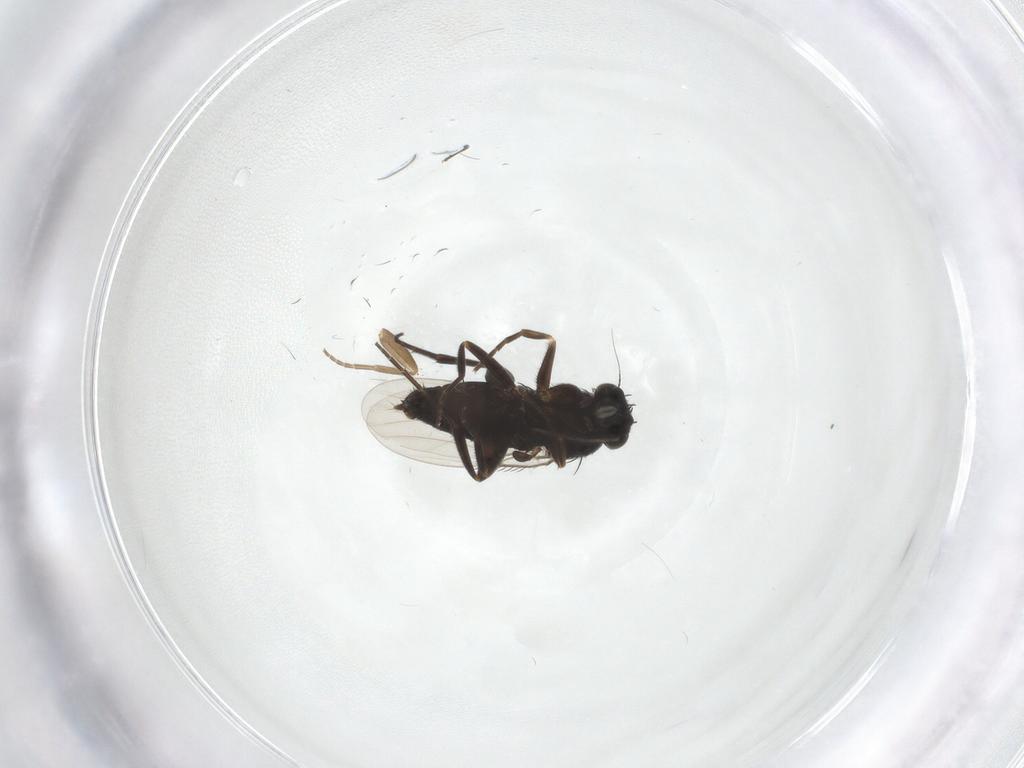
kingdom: Animalia
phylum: Arthropoda
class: Insecta
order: Diptera
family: Phoridae
